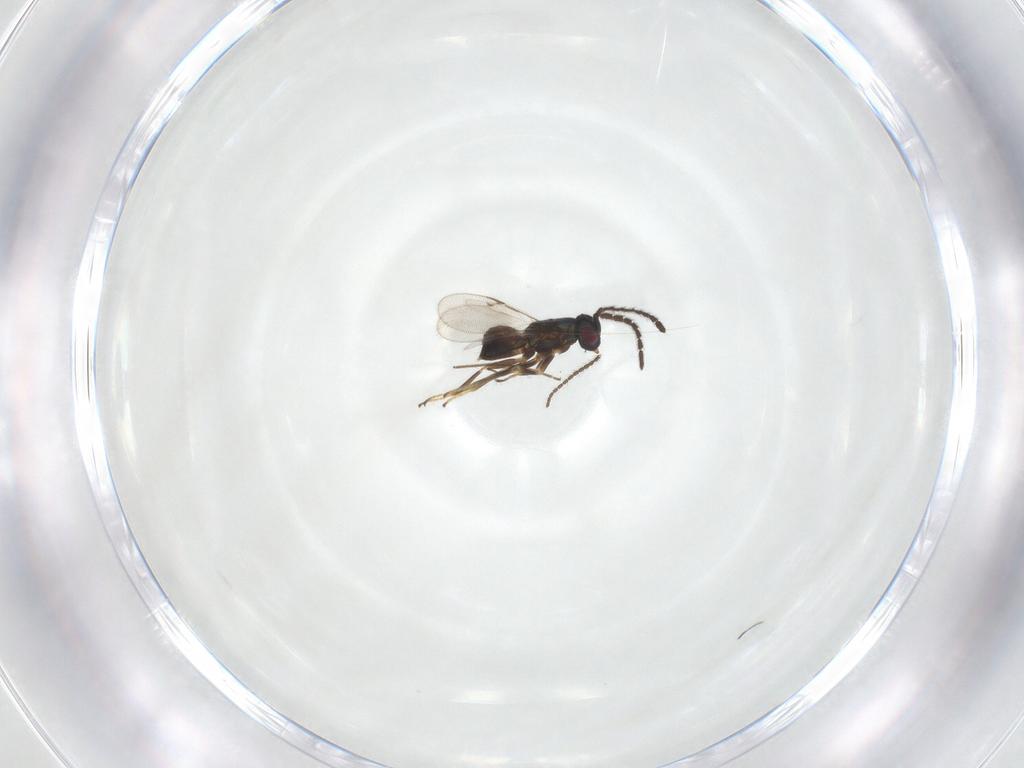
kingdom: Animalia
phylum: Arthropoda
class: Insecta
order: Hymenoptera
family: Encyrtidae
